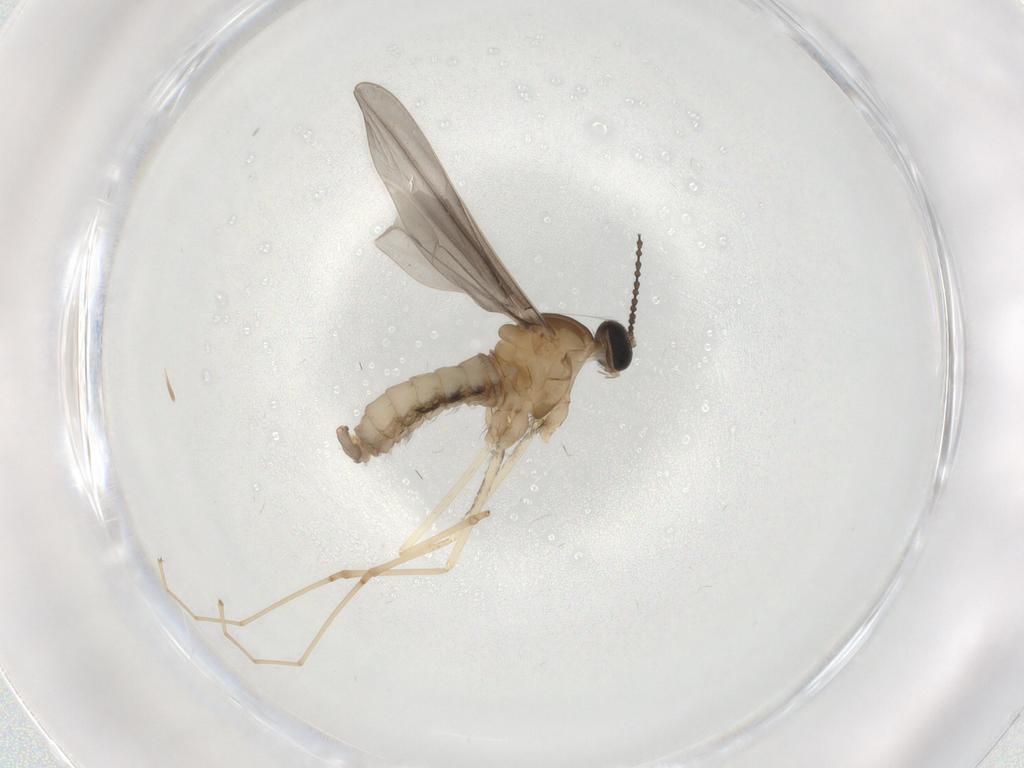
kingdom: Animalia
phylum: Arthropoda
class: Insecta
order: Diptera
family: Cecidomyiidae
